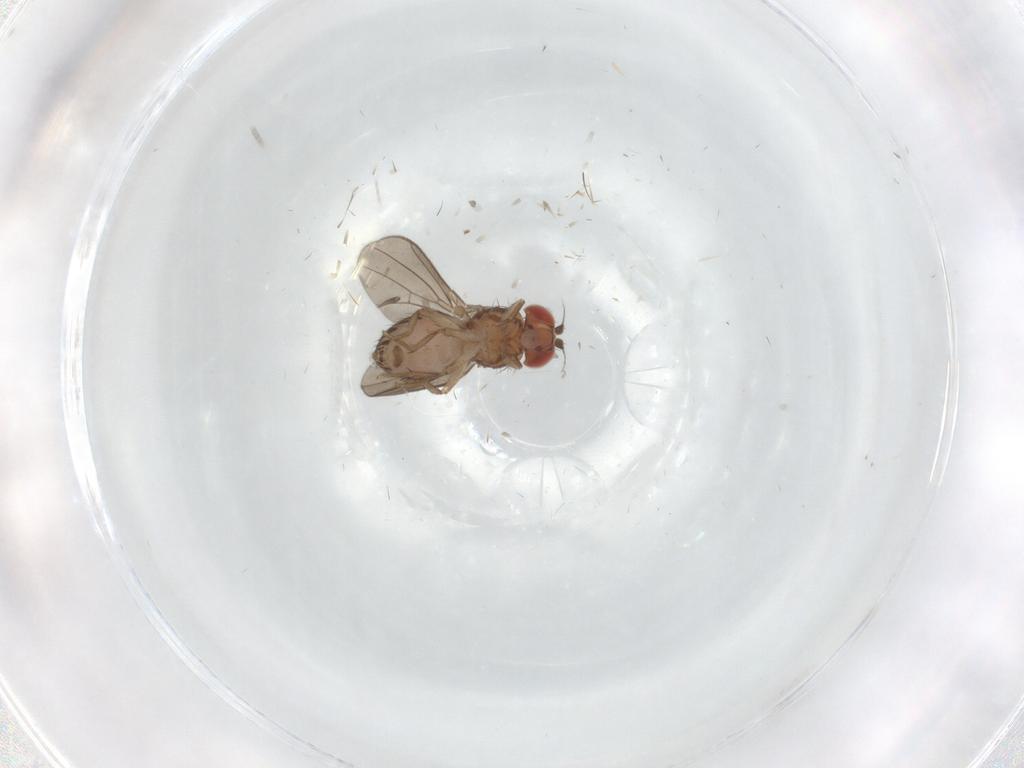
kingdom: Animalia
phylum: Arthropoda
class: Insecta
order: Diptera
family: Drosophilidae
